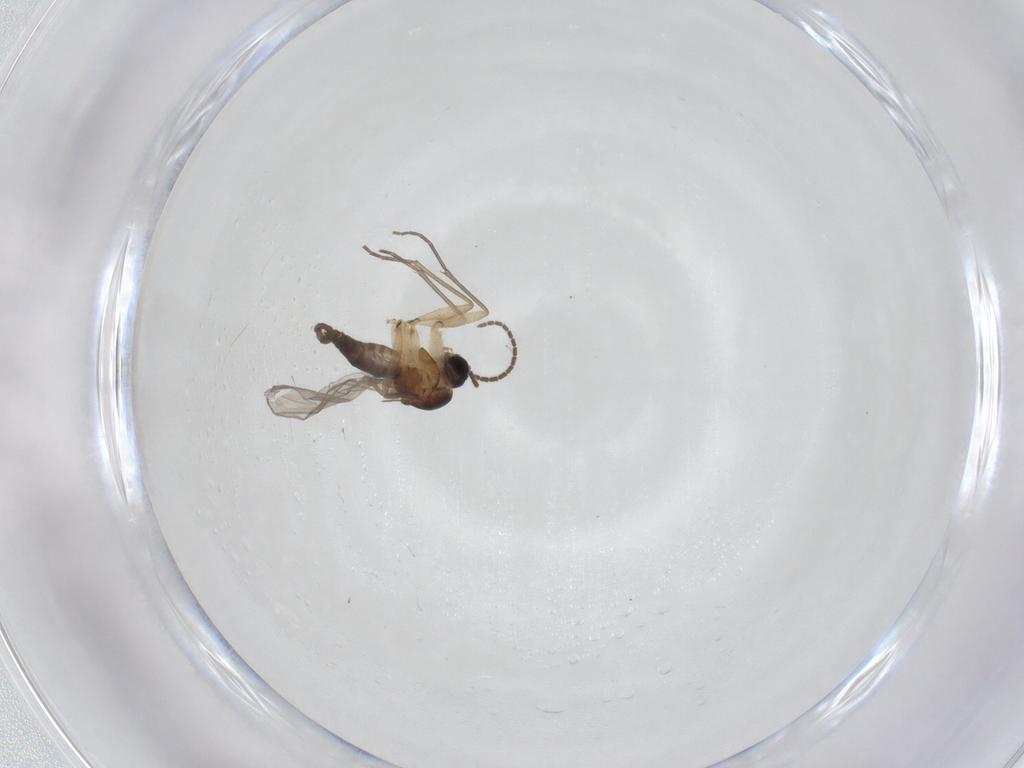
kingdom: Animalia
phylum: Arthropoda
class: Insecta
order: Diptera
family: Sciaridae
